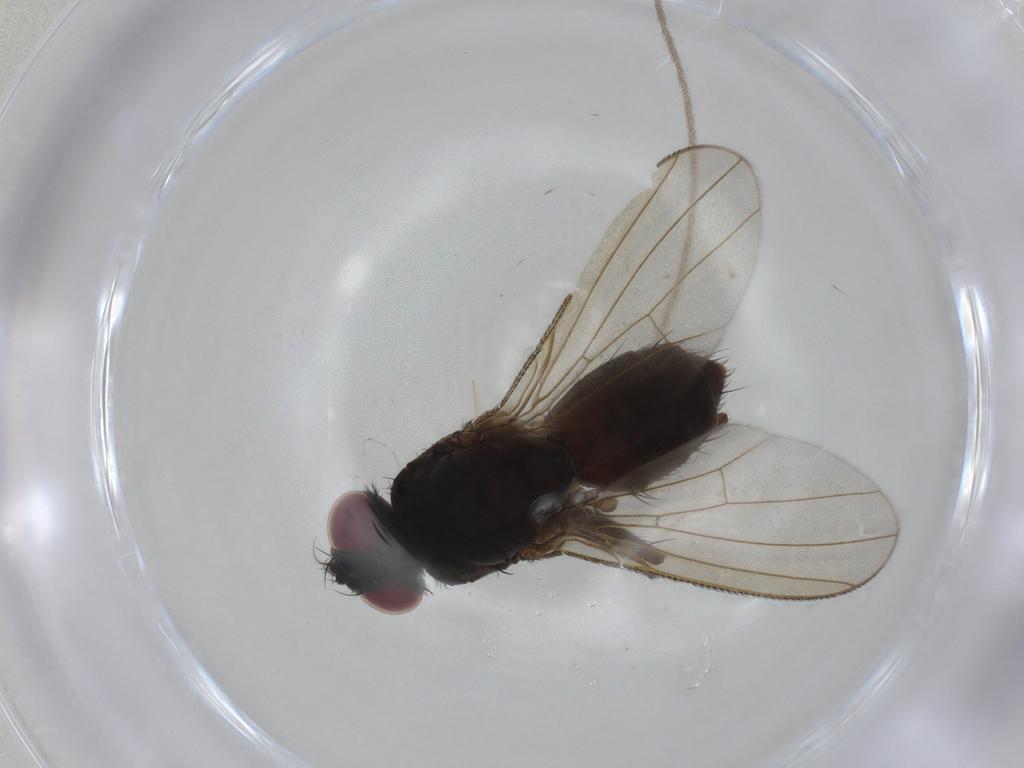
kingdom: Animalia
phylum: Arthropoda
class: Insecta
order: Diptera
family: Muscidae
